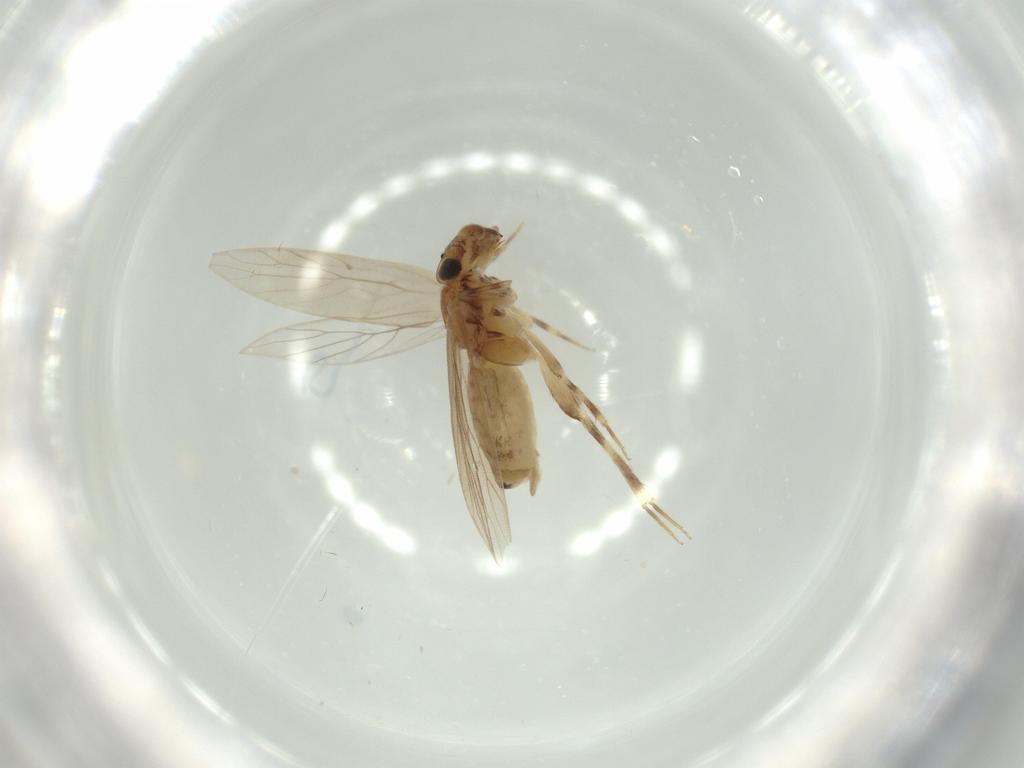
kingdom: Animalia
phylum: Arthropoda
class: Insecta
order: Psocodea
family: Lepidopsocidae
